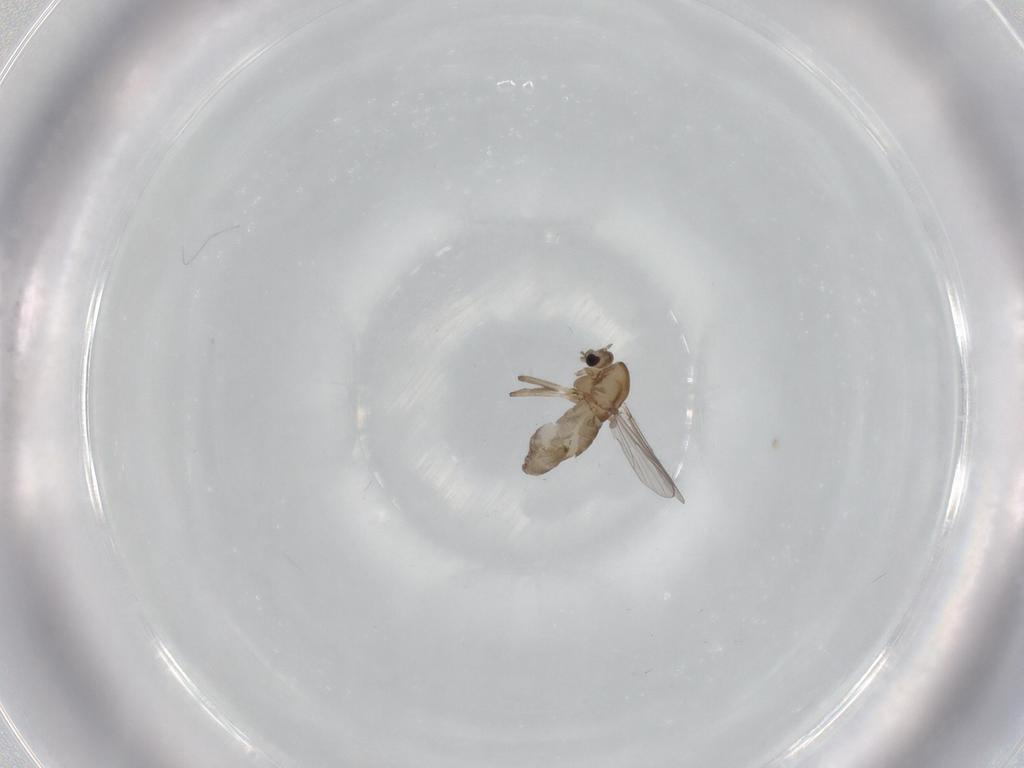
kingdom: Animalia
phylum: Arthropoda
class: Insecta
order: Diptera
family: Chironomidae
